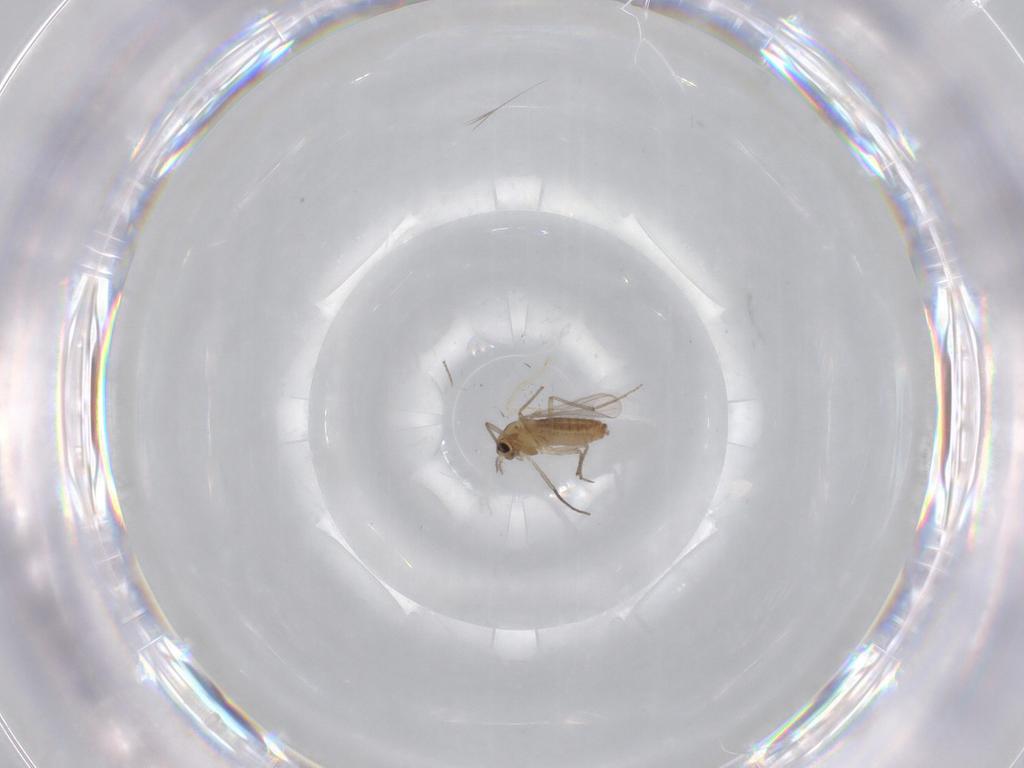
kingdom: Animalia
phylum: Arthropoda
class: Insecta
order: Diptera
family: Chironomidae
